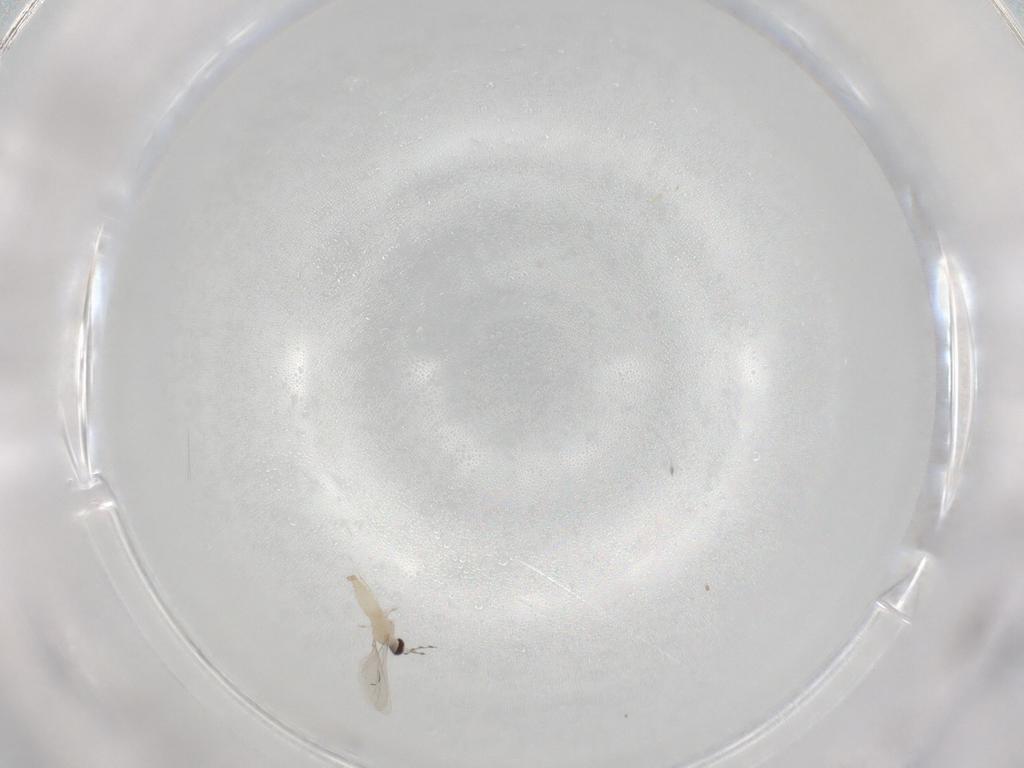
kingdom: Animalia
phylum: Arthropoda
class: Insecta
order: Diptera
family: Cecidomyiidae
